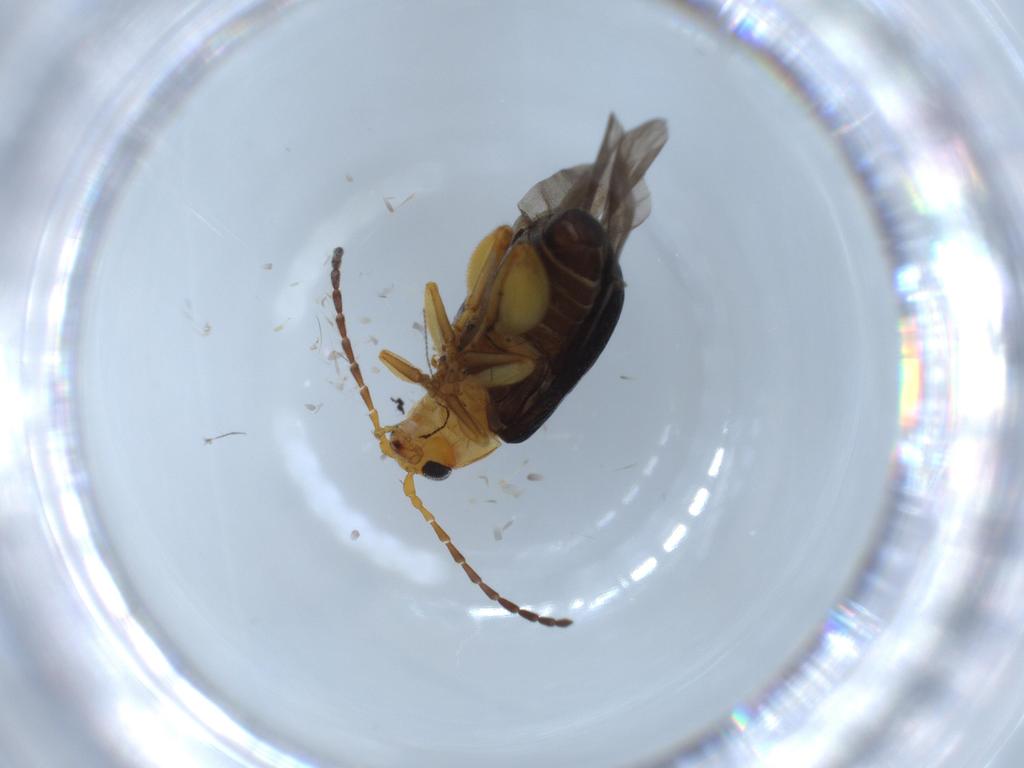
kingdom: Animalia
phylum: Arthropoda
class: Insecta
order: Coleoptera
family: Chrysomelidae
